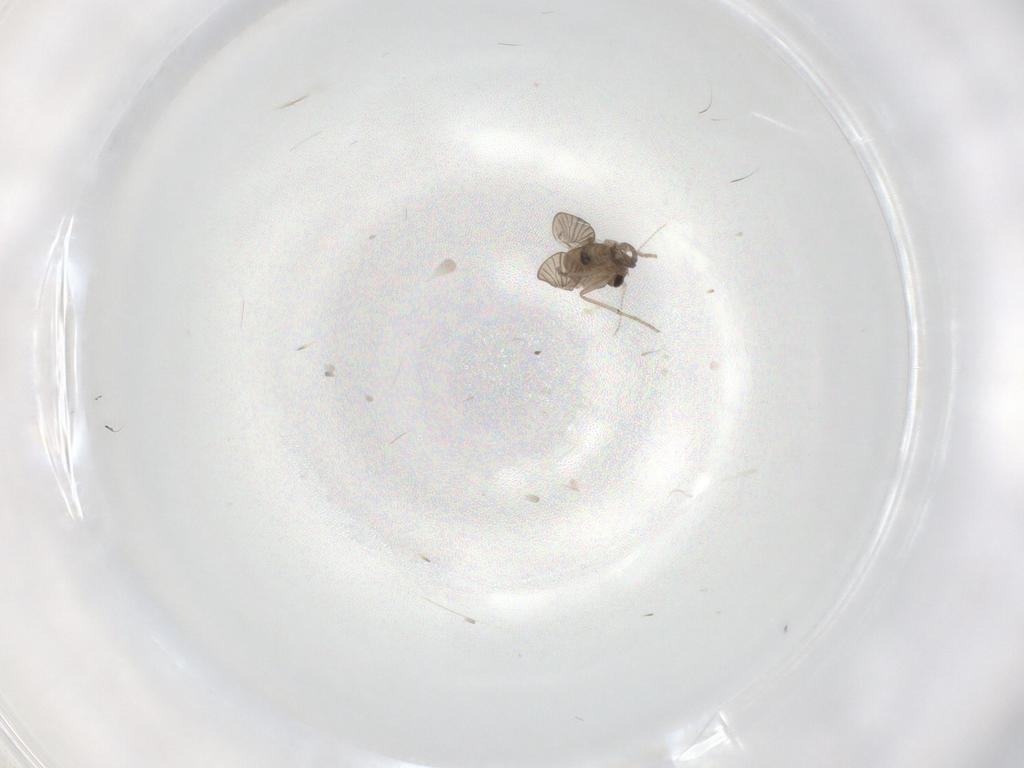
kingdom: Animalia
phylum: Arthropoda
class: Insecta
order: Diptera
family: Psychodidae
